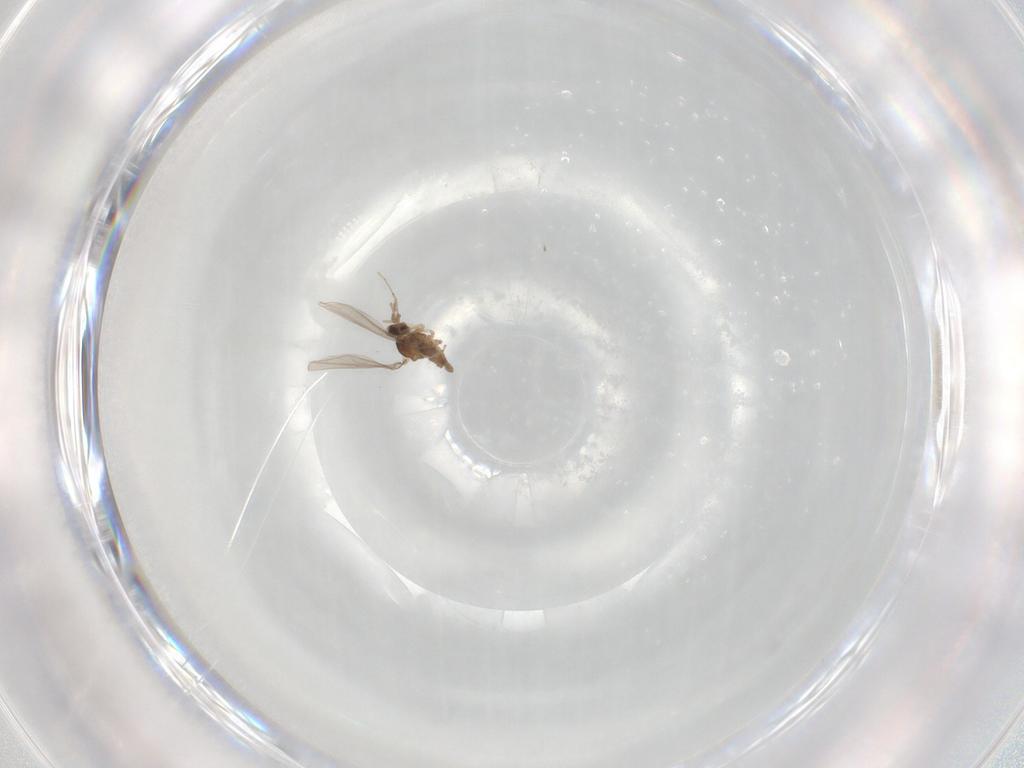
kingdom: Animalia
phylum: Arthropoda
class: Insecta
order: Diptera
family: Cecidomyiidae
